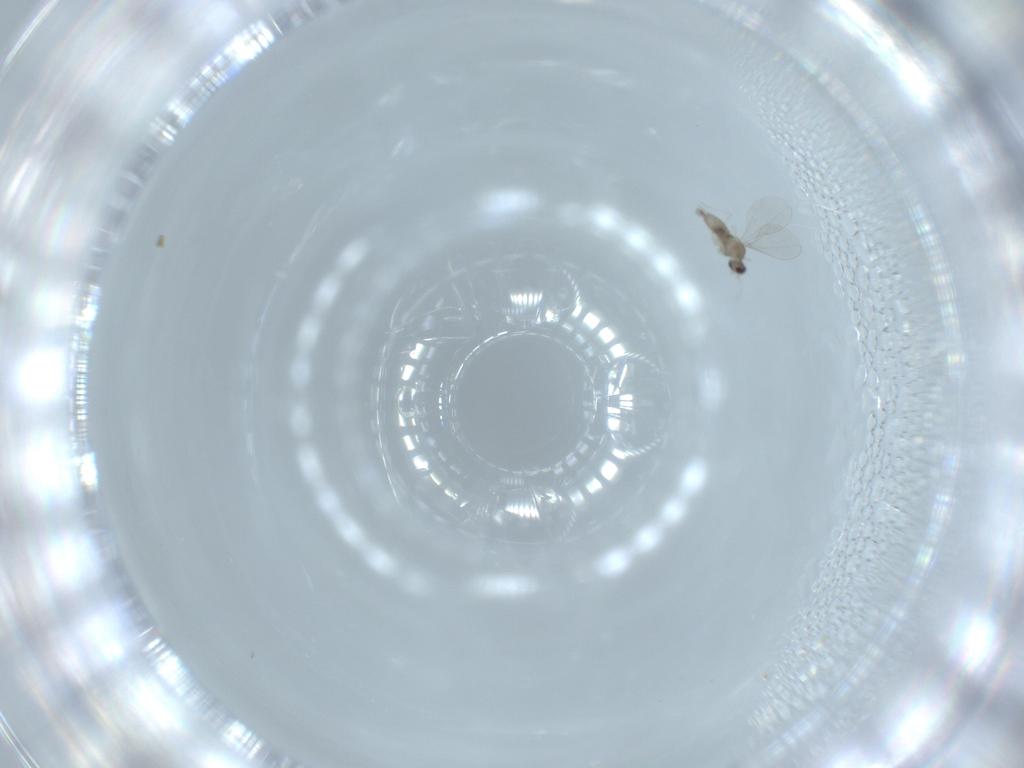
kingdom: Animalia
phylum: Arthropoda
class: Insecta
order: Diptera
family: Cecidomyiidae
